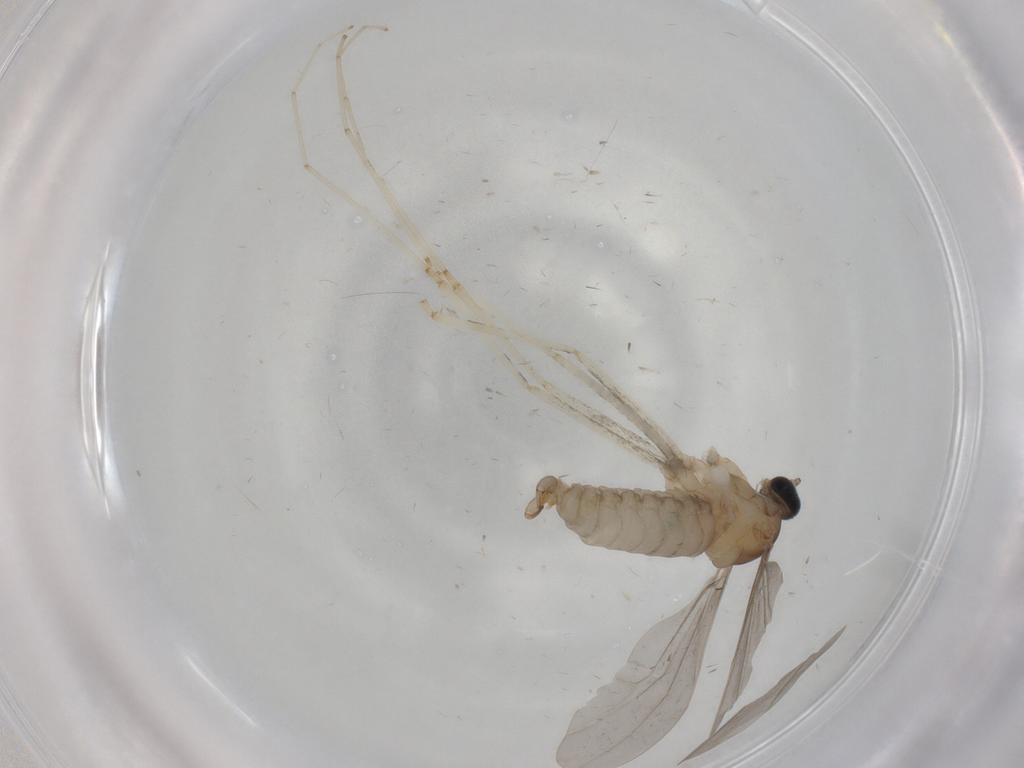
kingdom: Animalia
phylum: Arthropoda
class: Insecta
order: Diptera
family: Cecidomyiidae
